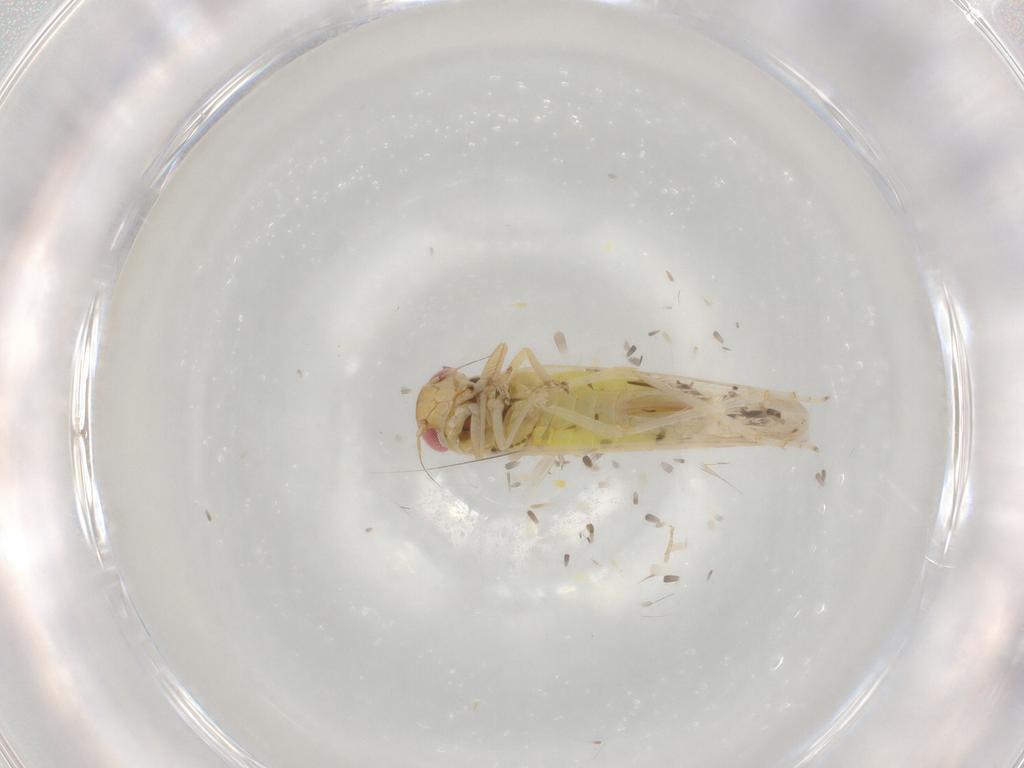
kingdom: Animalia
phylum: Arthropoda
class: Insecta
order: Hemiptera
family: Cicadellidae
